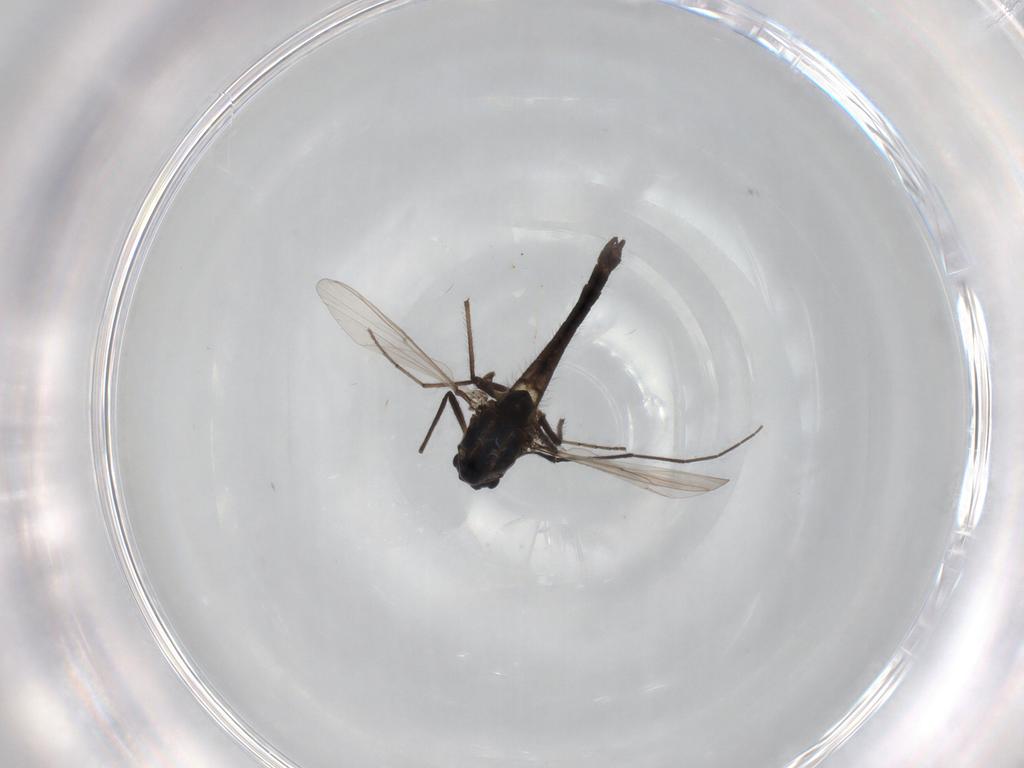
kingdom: Animalia
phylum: Arthropoda
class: Insecta
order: Diptera
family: Chironomidae
